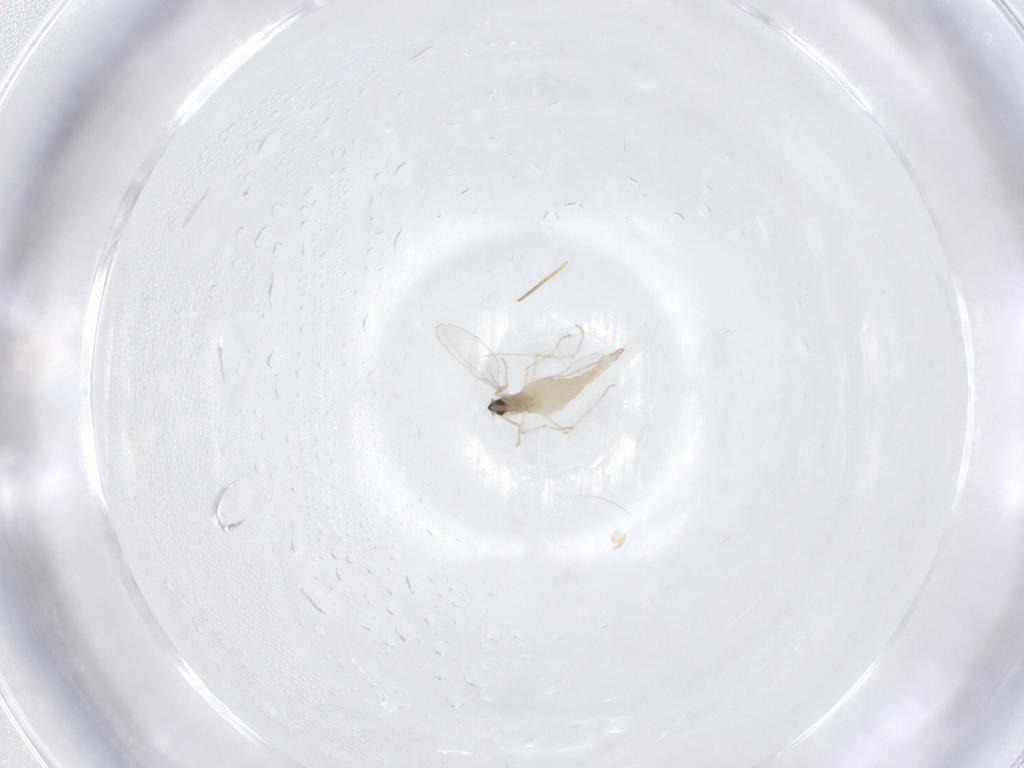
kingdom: Animalia
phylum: Arthropoda
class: Insecta
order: Diptera
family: Cecidomyiidae
